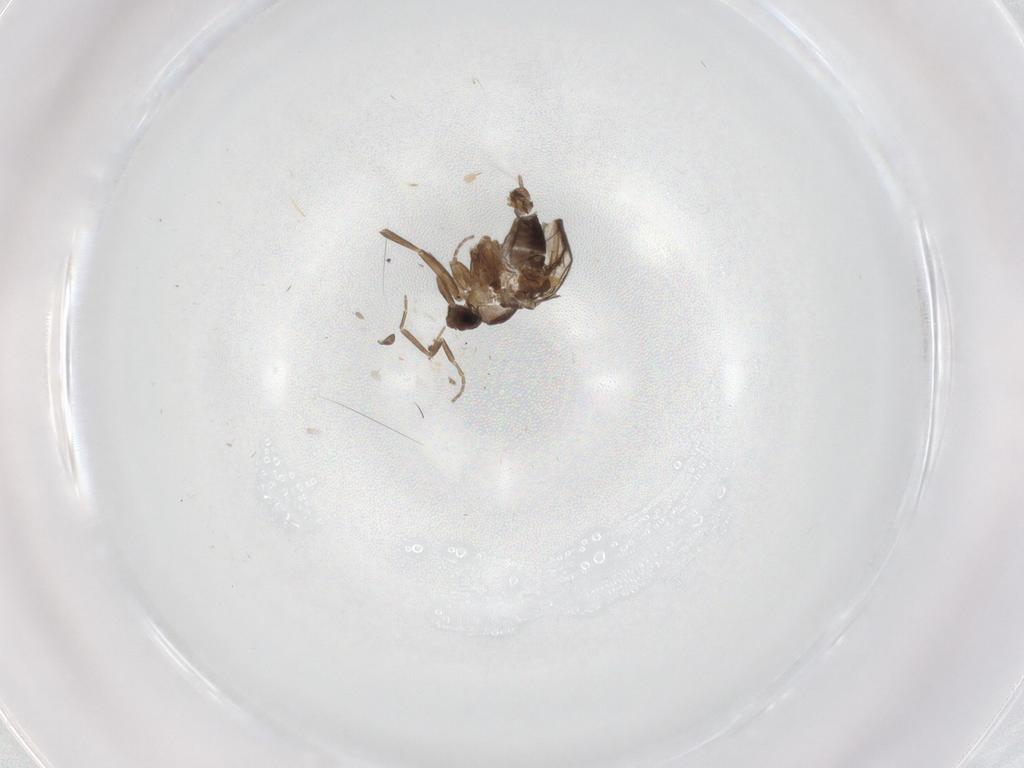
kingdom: Animalia
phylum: Arthropoda
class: Insecta
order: Diptera
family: Phoridae
